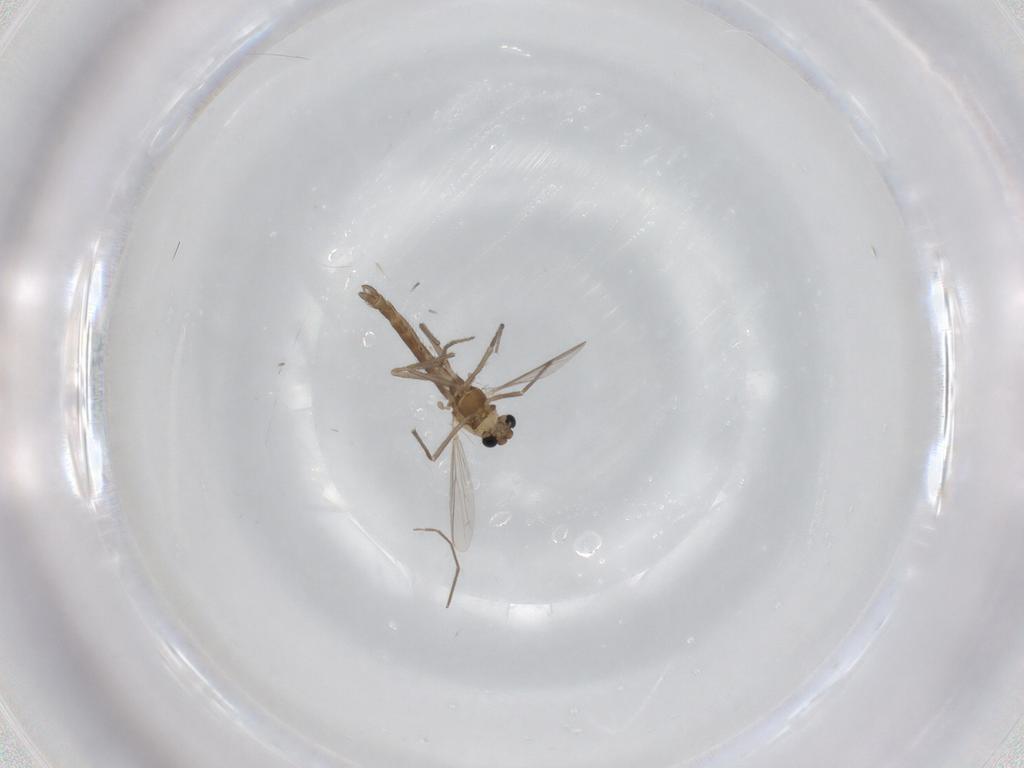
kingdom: Animalia
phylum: Arthropoda
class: Insecta
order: Diptera
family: Chironomidae
